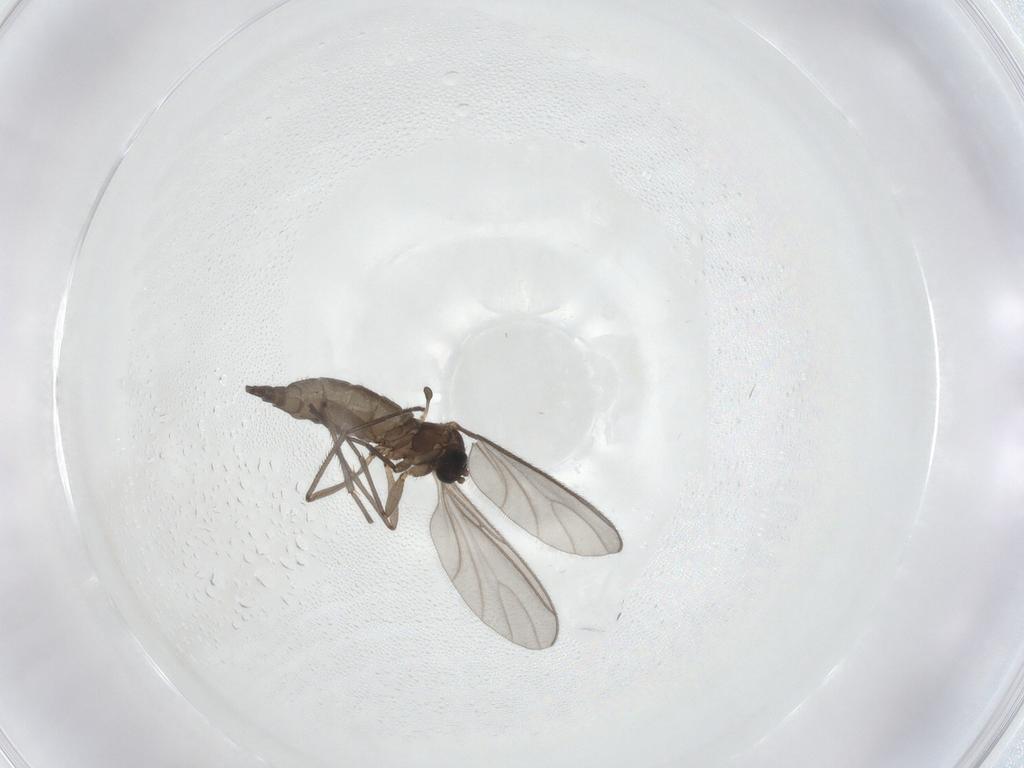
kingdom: Animalia
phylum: Arthropoda
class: Insecta
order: Diptera
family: Sciaridae
